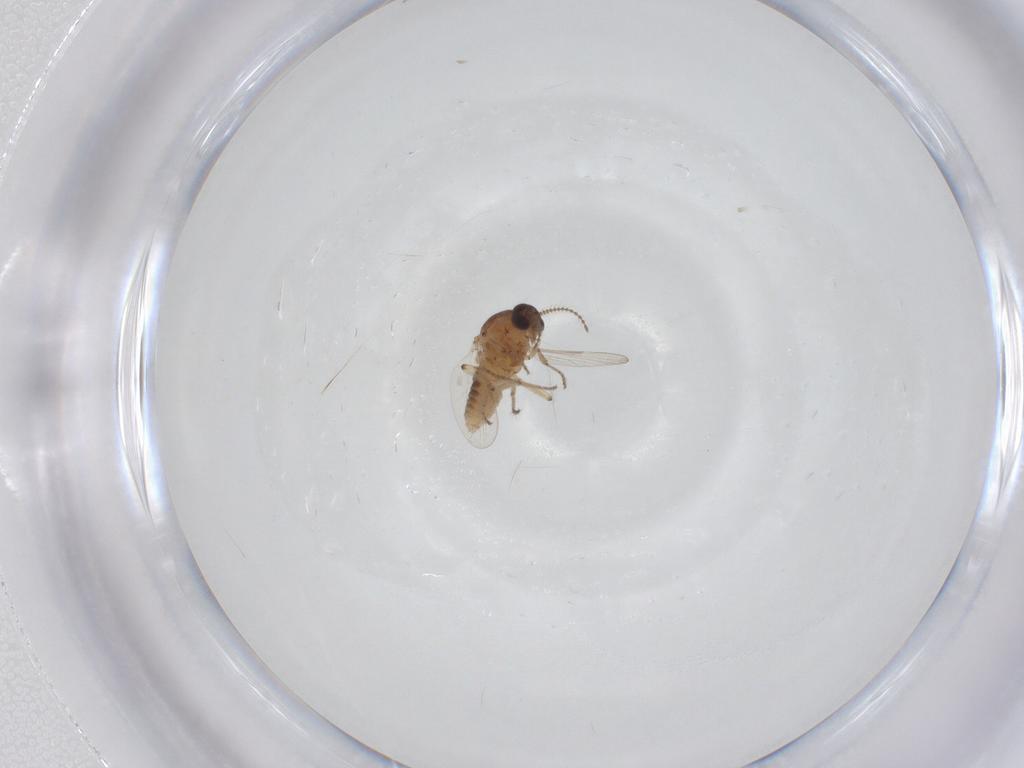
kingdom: Animalia
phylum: Arthropoda
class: Insecta
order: Diptera
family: Ceratopogonidae
